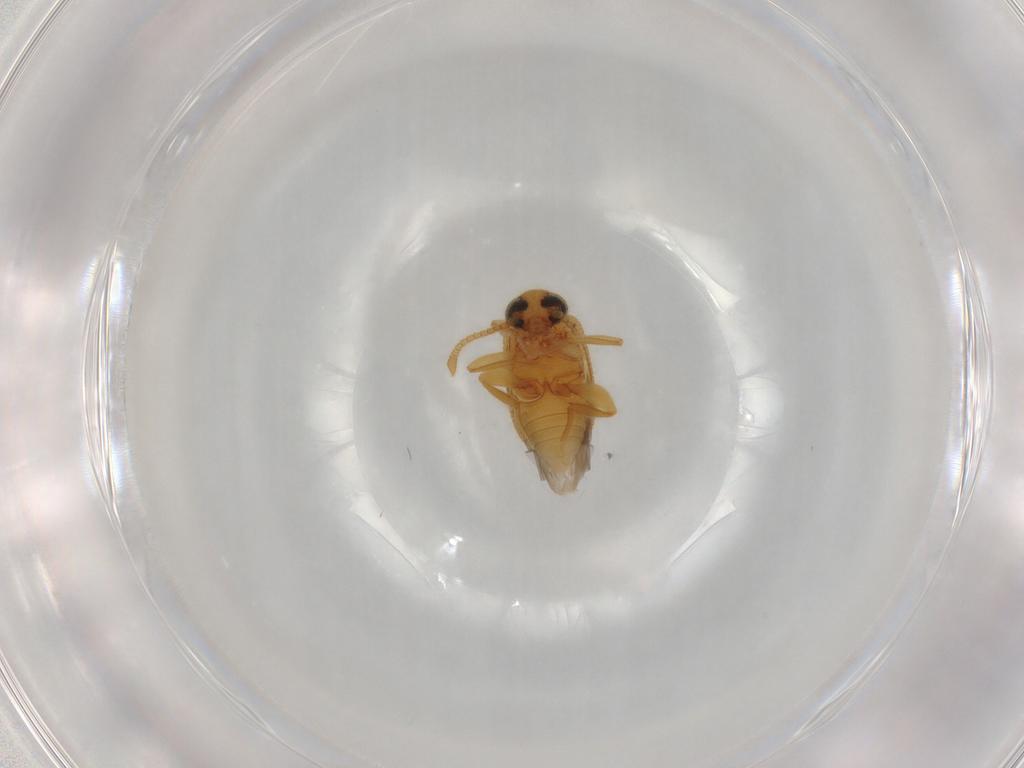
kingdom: Animalia
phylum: Arthropoda
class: Insecta
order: Coleoptera
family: Aderidae
